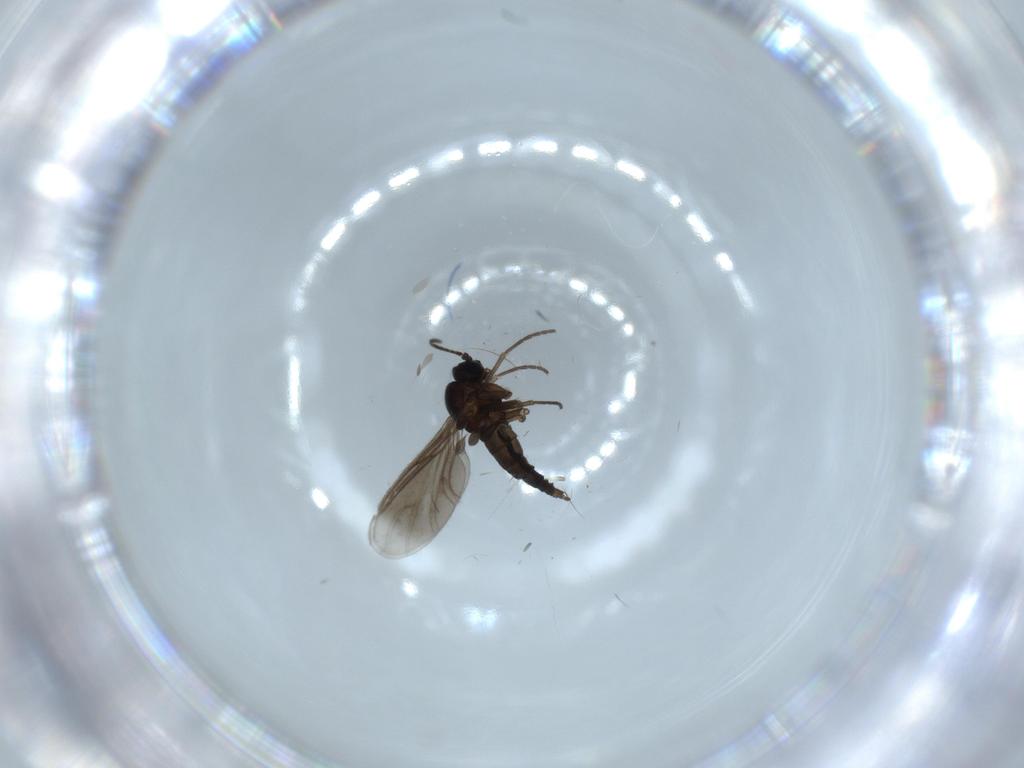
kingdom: Animalia
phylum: Arthropoda
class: Insecta
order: Diptera
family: Sciaridae
